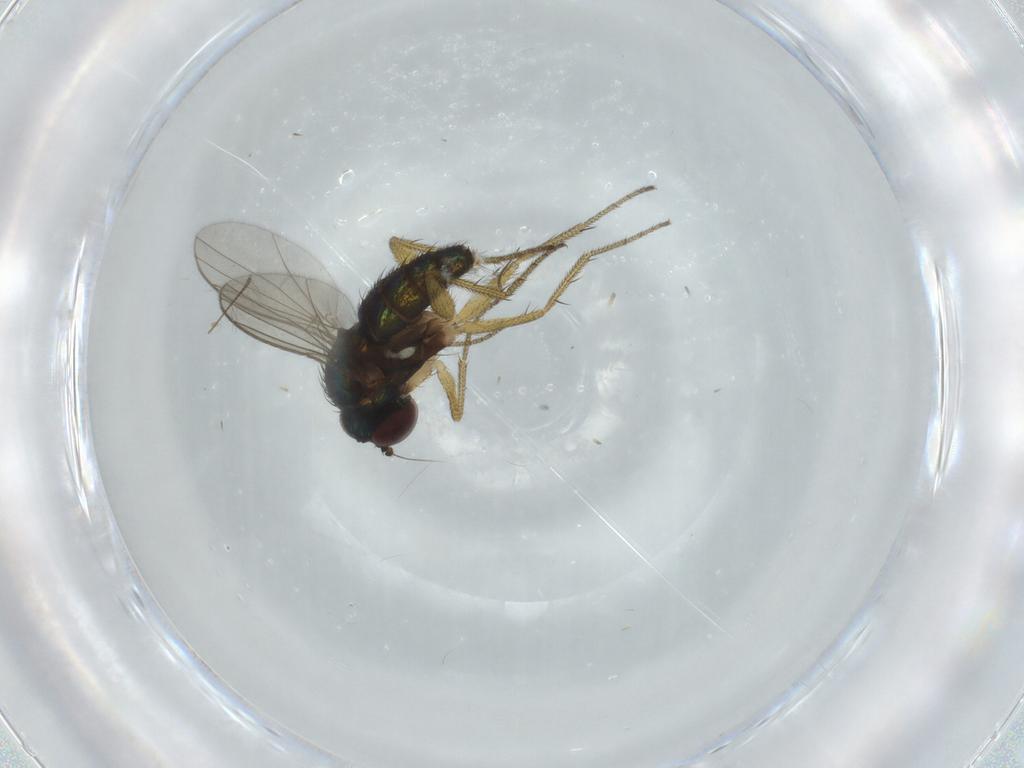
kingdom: Animalia
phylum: Arthropoda
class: Insecta
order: Diptera
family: Dolichopodidae
